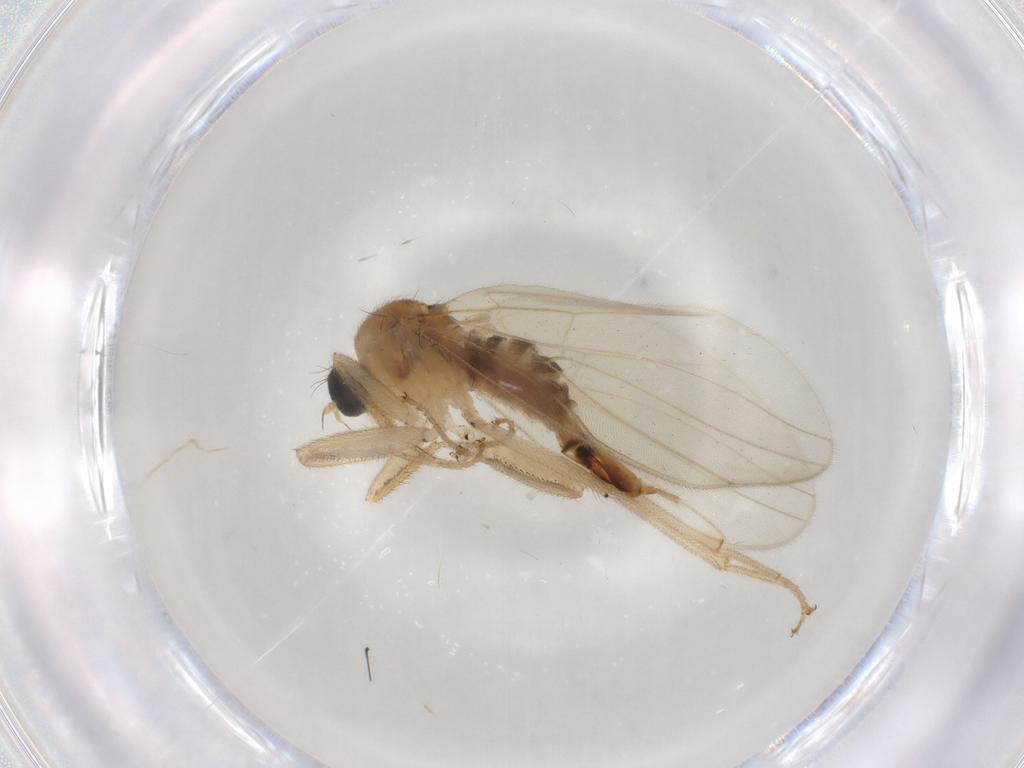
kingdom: Animalia
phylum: Arthropoda
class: Insecta
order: Diptera
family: Hybotidae
